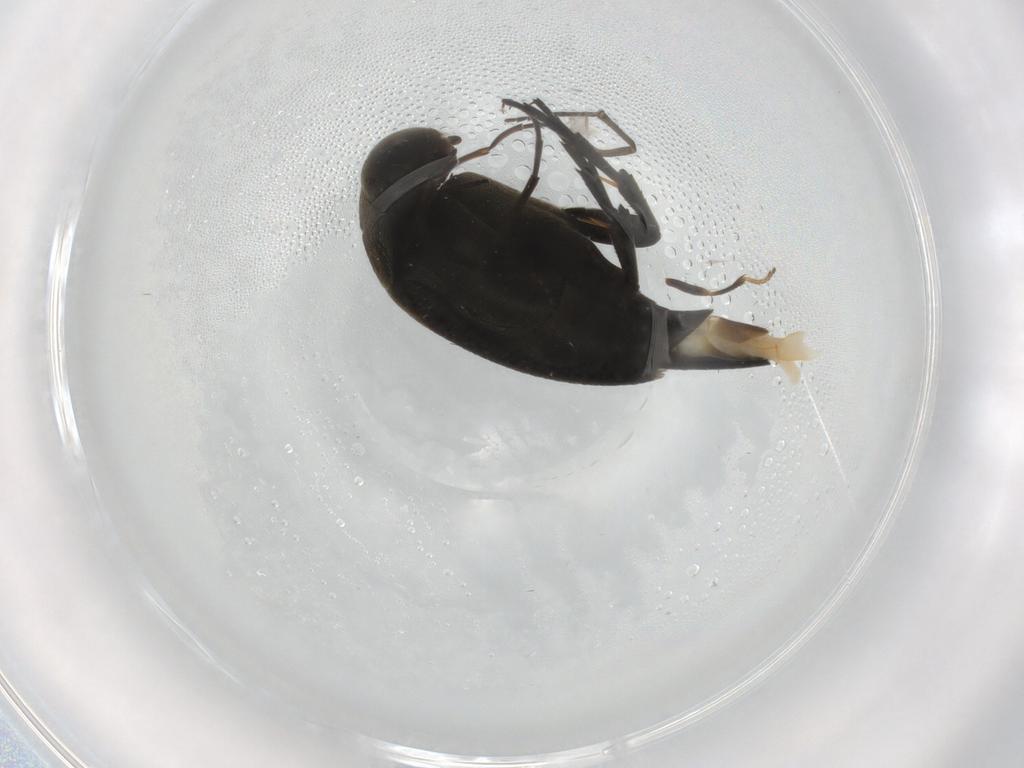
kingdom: Animalia
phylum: Arthropoda
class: Insecta
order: Coleoptera
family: Mordellidae
